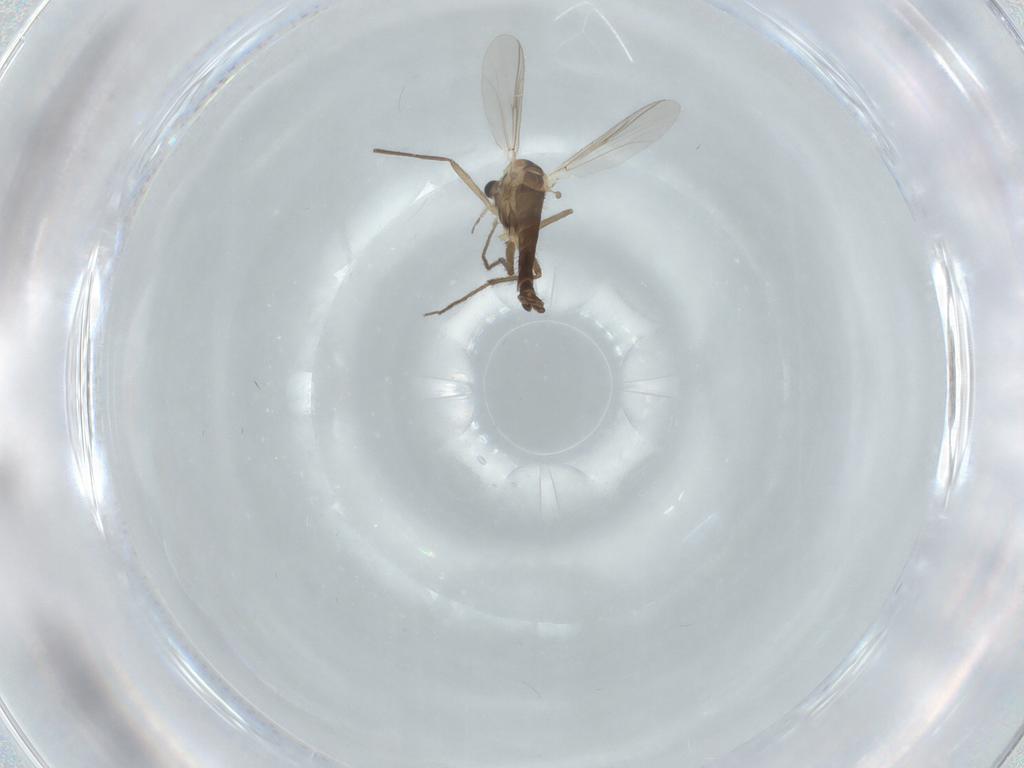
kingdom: Animalia
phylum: Arthropoda
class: Insecta
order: Diptera
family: Chironomidae
